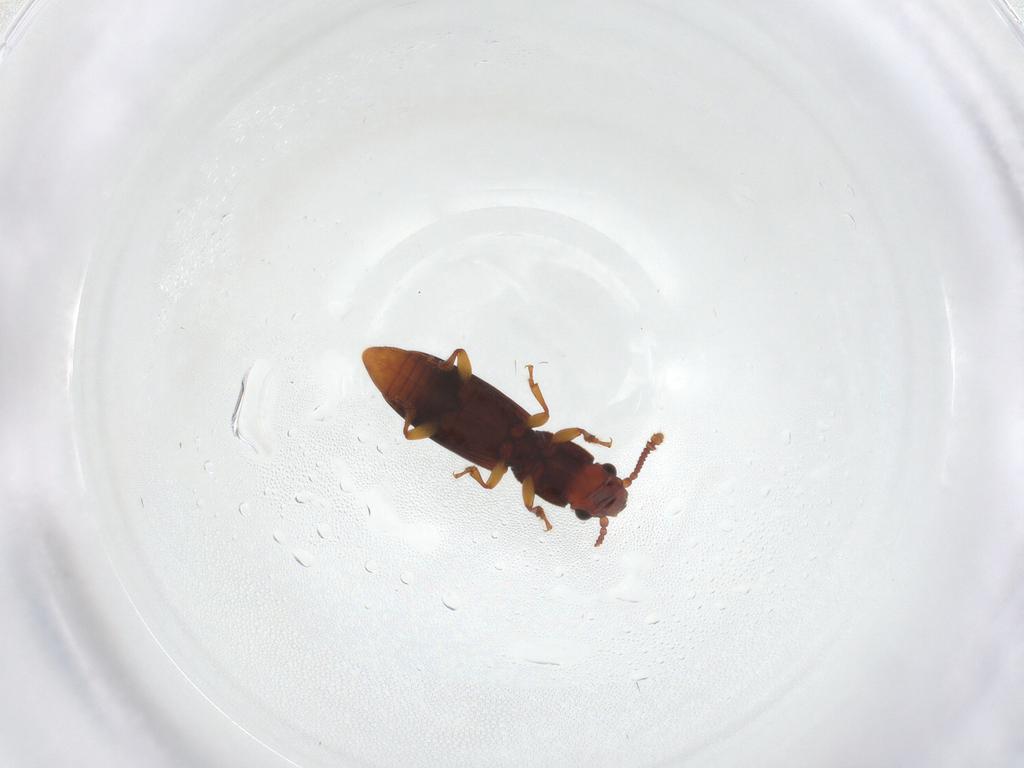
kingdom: Animalia
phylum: Arthropoda
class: Insecta
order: Coleoptera
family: Monotomidae
